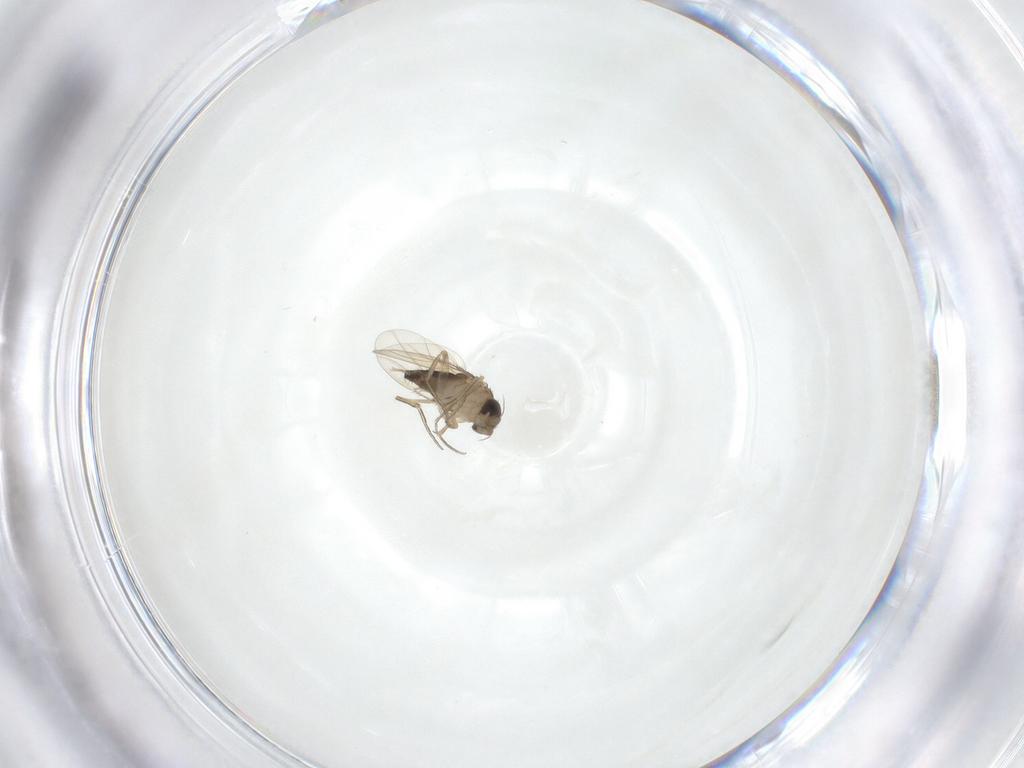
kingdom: Animalia
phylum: Arthropoda
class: Insecta
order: Diptera
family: Phoridae
